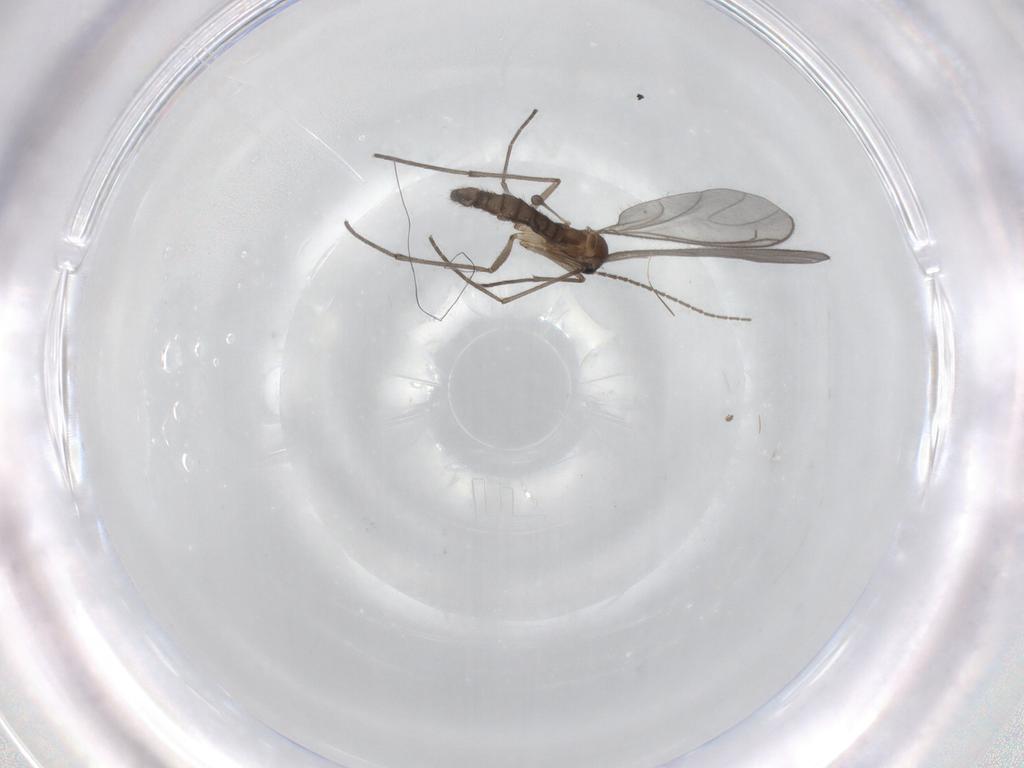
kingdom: Animalia
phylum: Arthropoda
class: Insecta
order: Diptera
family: Sciaridae
